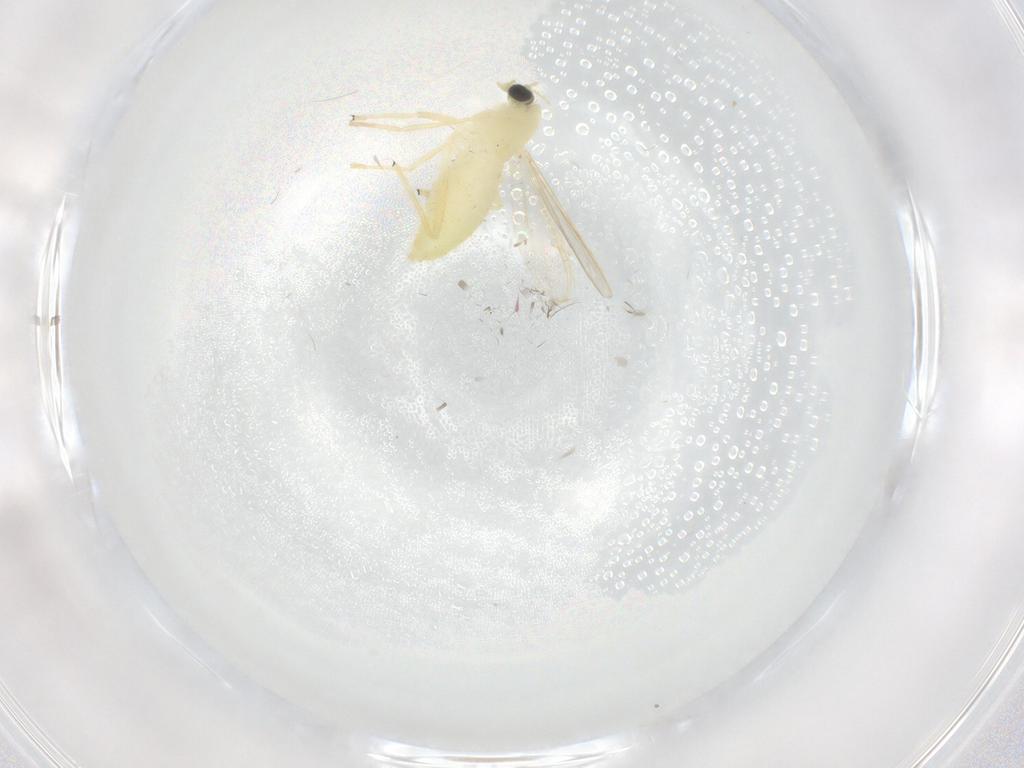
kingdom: Animalia
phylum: Arthropoda
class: Insecta
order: Diptera
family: Chironomidae
